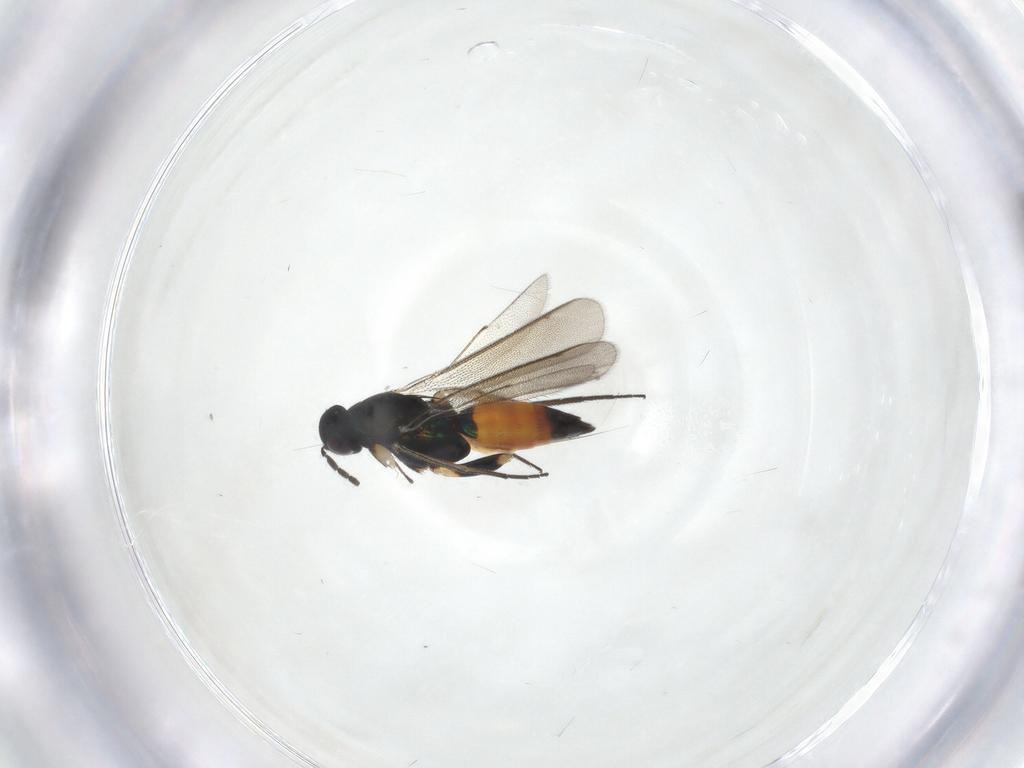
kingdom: Animalia
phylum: Arthropoda
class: Insecta
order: Hymenoptera
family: Eulophidae
